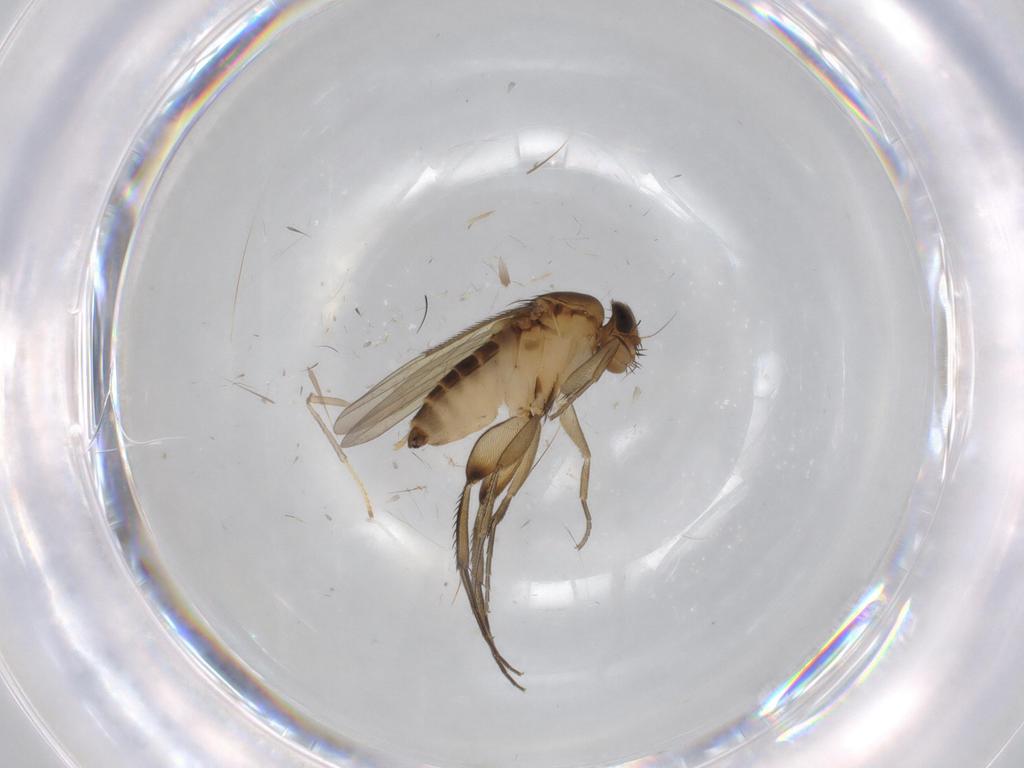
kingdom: Animalia
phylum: Arthropoda
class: Insecta
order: Diptera
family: Phoridae
